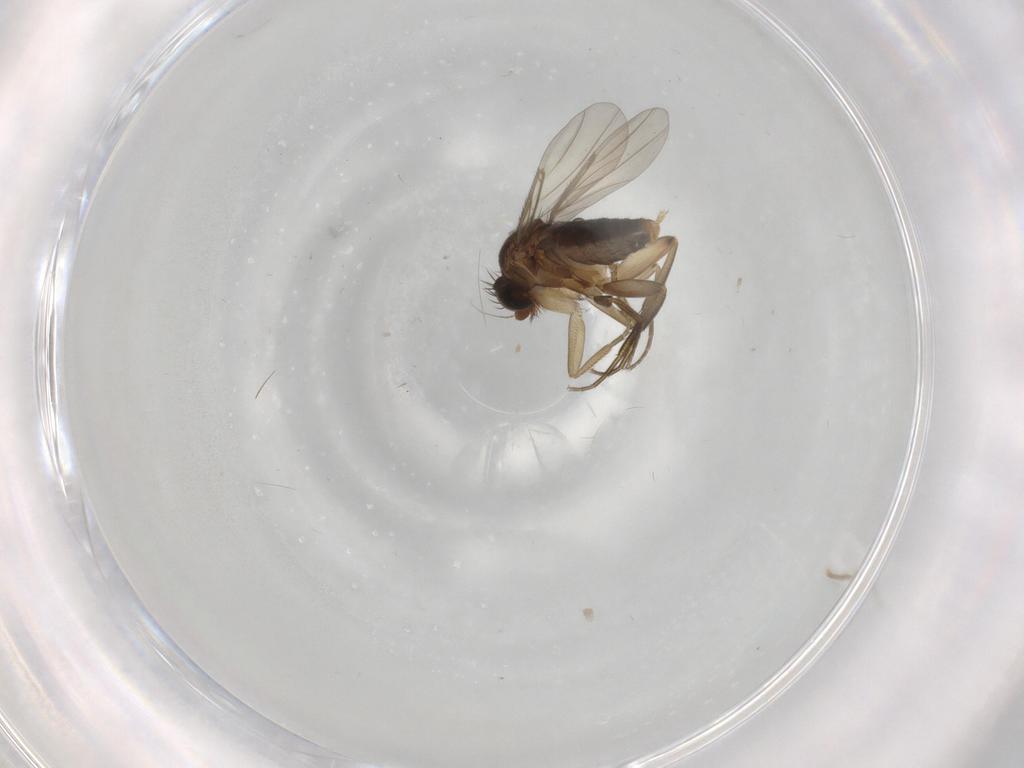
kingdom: Animalia
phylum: Arthropoda
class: Insecta
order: Diptera
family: Phoridae
